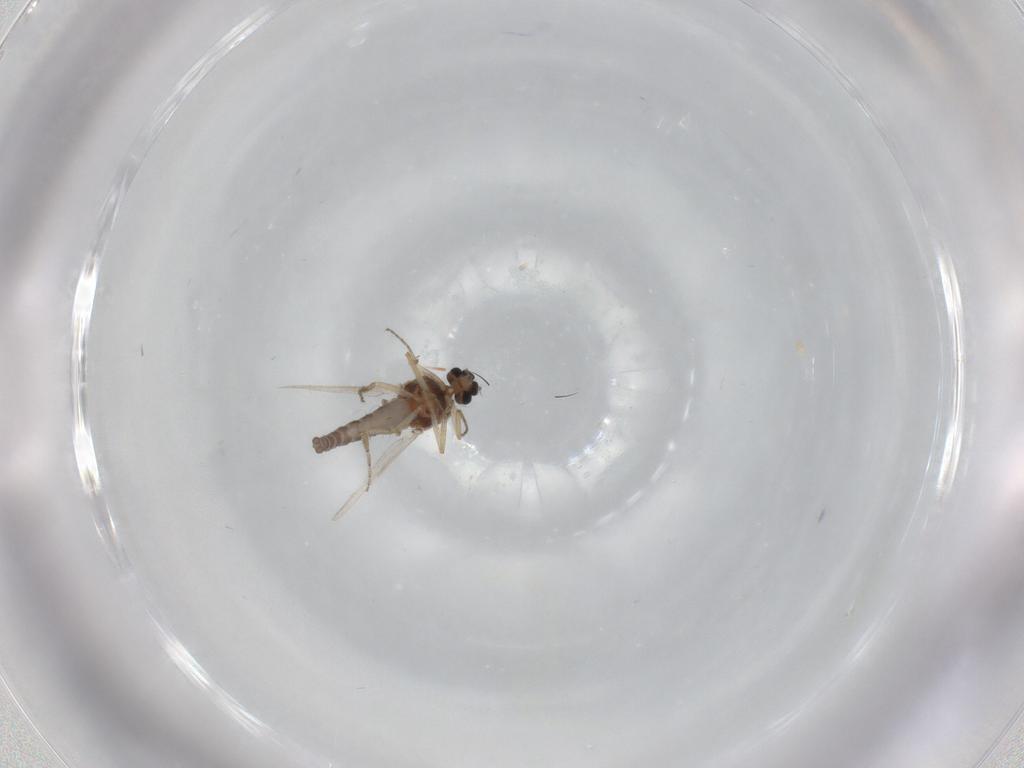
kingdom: Animalia
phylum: Arthropoda
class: Insecta
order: Diptera
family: Ceratopogonidae
